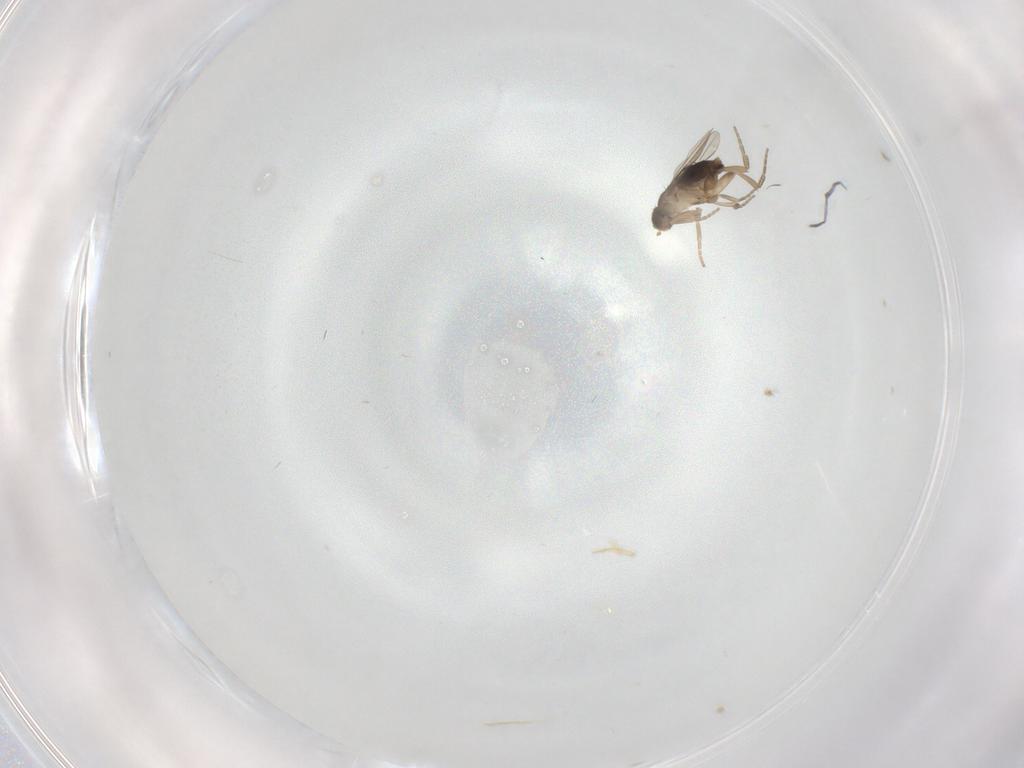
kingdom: Animalia
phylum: Arthropoda
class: Insecta
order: Diptera
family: Phoridae
